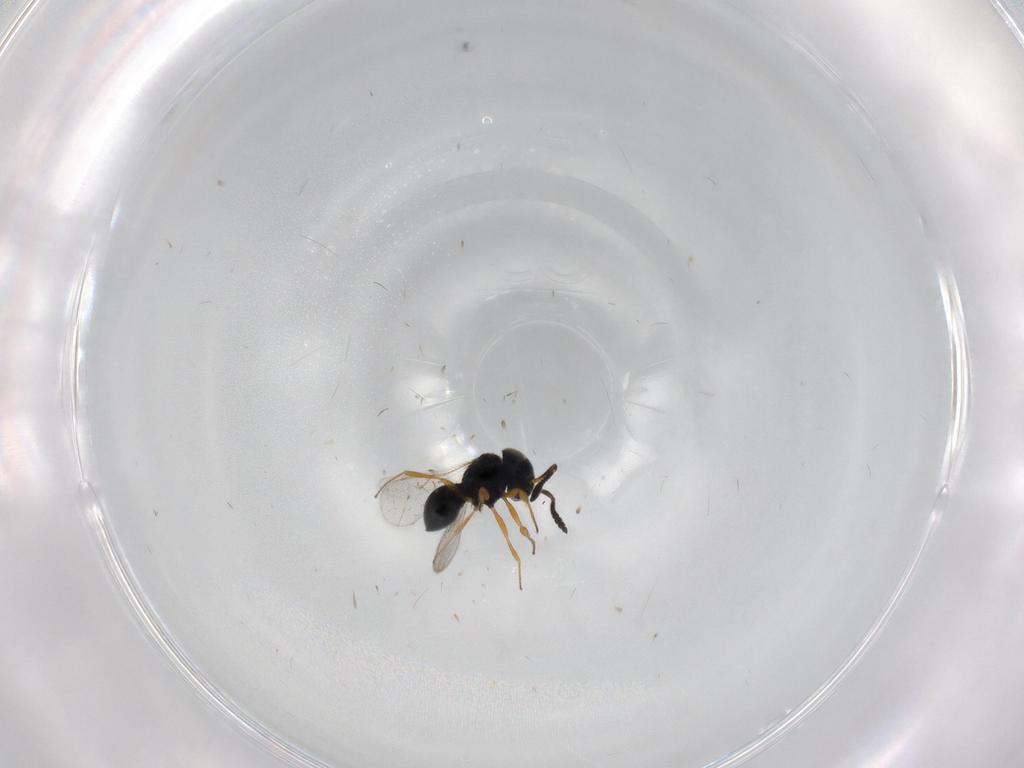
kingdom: Animalia
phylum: Arthropoda
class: Insecta
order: Hymenoptera
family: Scelionidae
